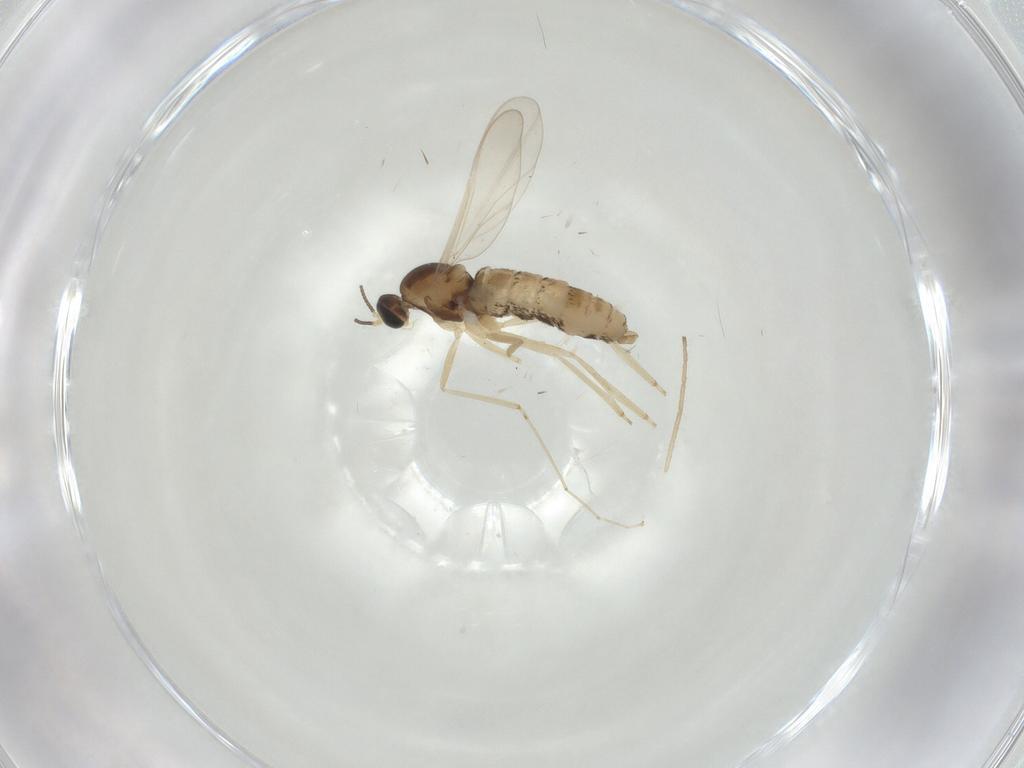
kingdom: Animalia
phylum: Arthropoda
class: Insecta
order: Diptera
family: Cecidomyiidae
